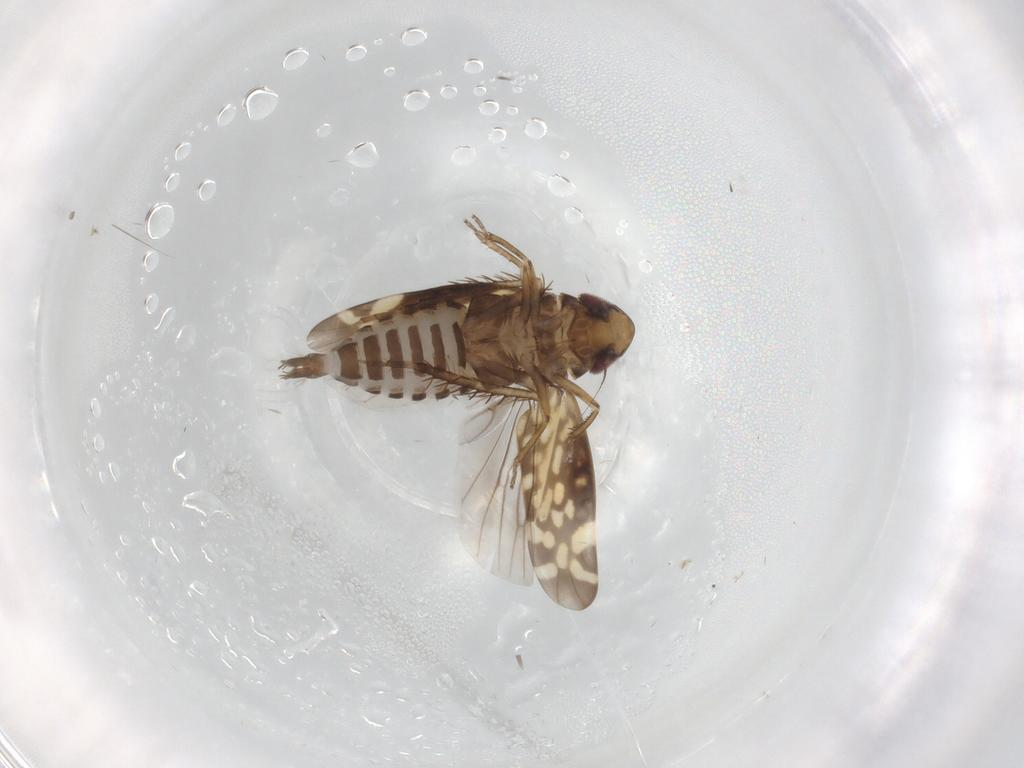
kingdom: Animalia
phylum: Arthropoda
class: Insecta
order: Hemiptera
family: Cicadellidae
